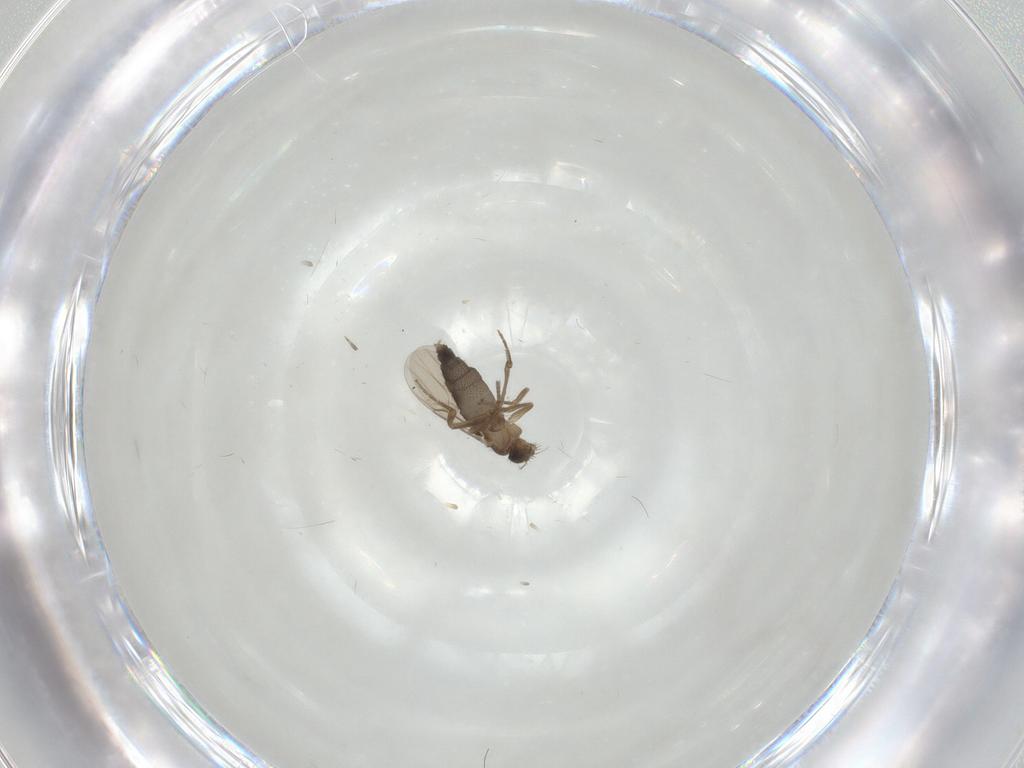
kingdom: Animalia
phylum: Arthropoda
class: Insecta
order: Diptera
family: Phoridae
